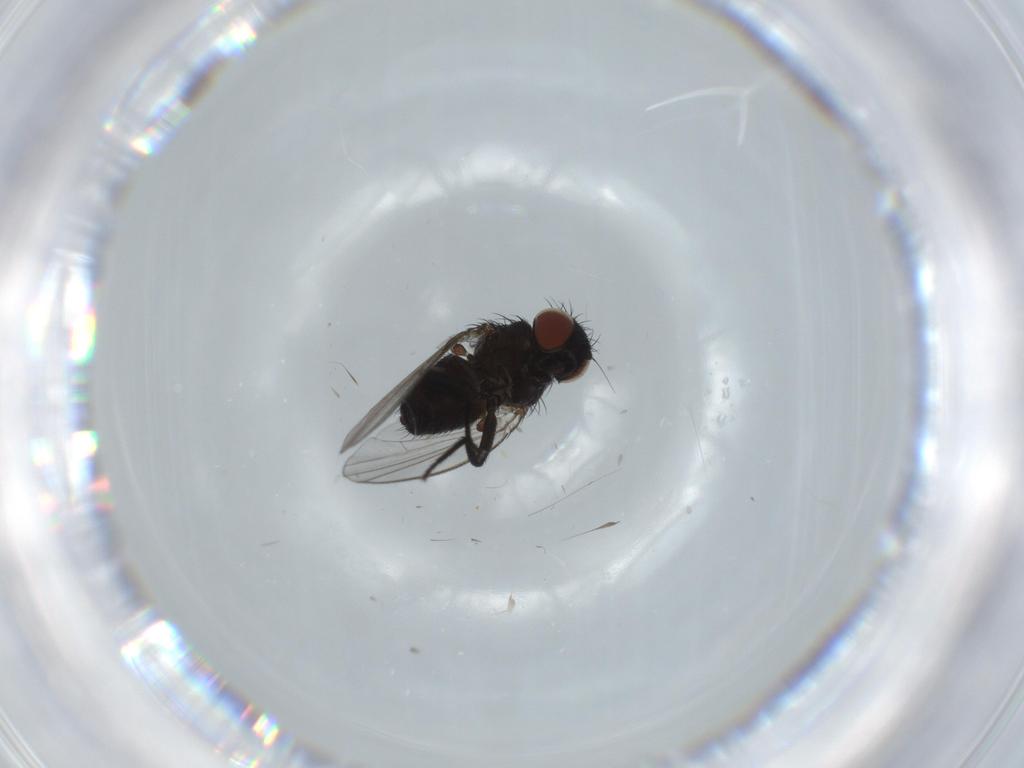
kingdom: Animalia
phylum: Arthropoda
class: Insecta
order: Diptera
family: Milichiidae
